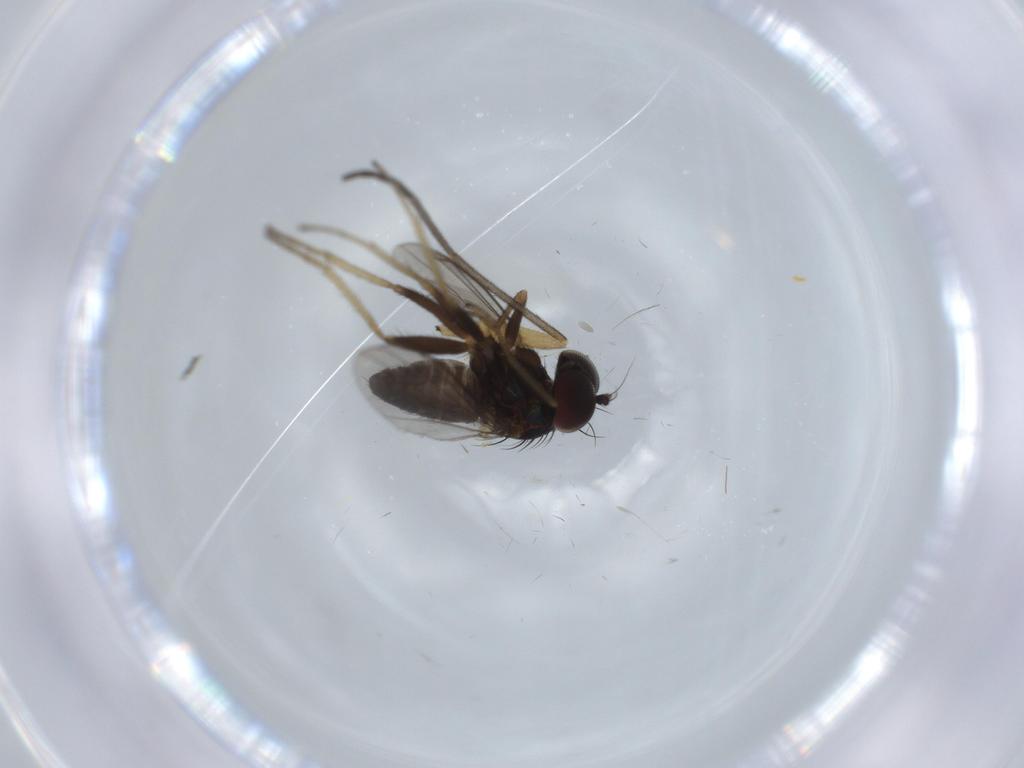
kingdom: Animalia
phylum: Arthropoda
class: Insecta
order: Diptera
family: Sciaridae
